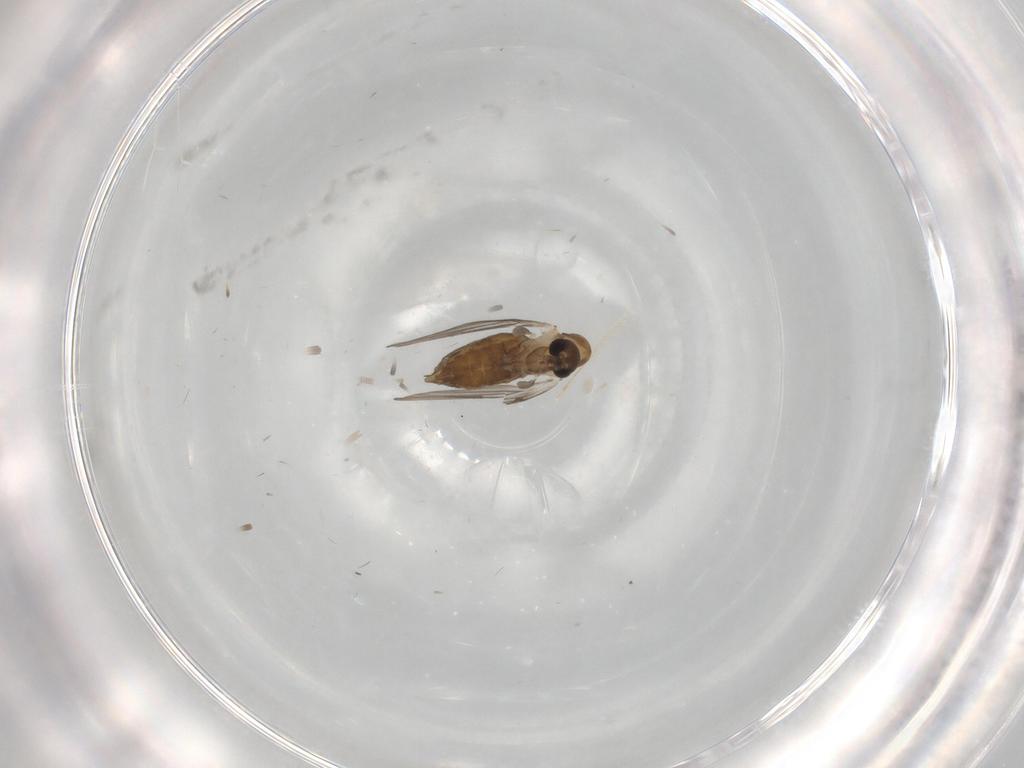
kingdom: Animalia
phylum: Arthropoda
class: Insecta
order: Diptera
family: Psychodidae
